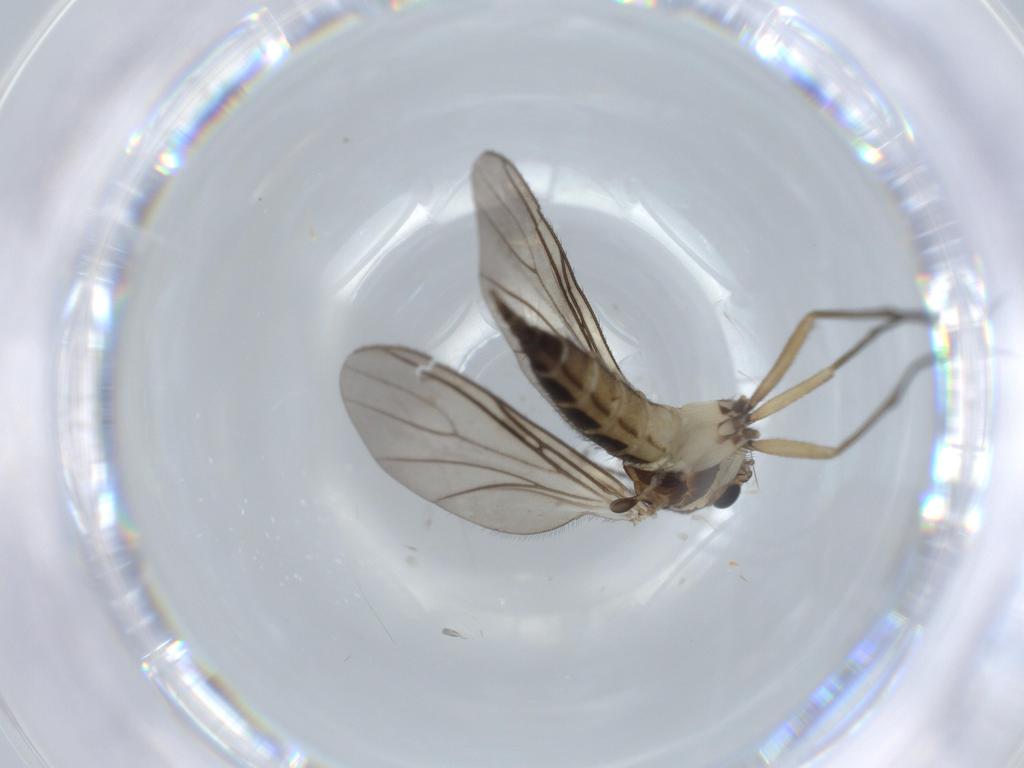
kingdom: Animalia
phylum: Arthropoda
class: Insecta
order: Diptera
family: Sciaridae
